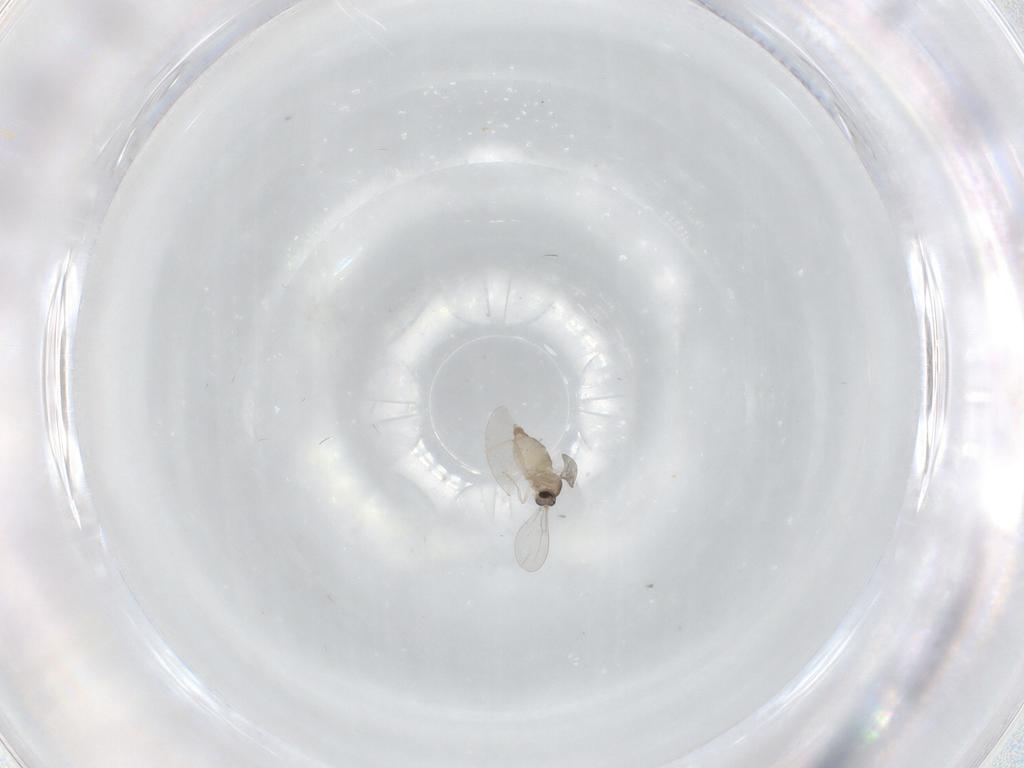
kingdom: Animalia
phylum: Arthropoda
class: Insecta
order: Diptera
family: Cecidomyiidae
